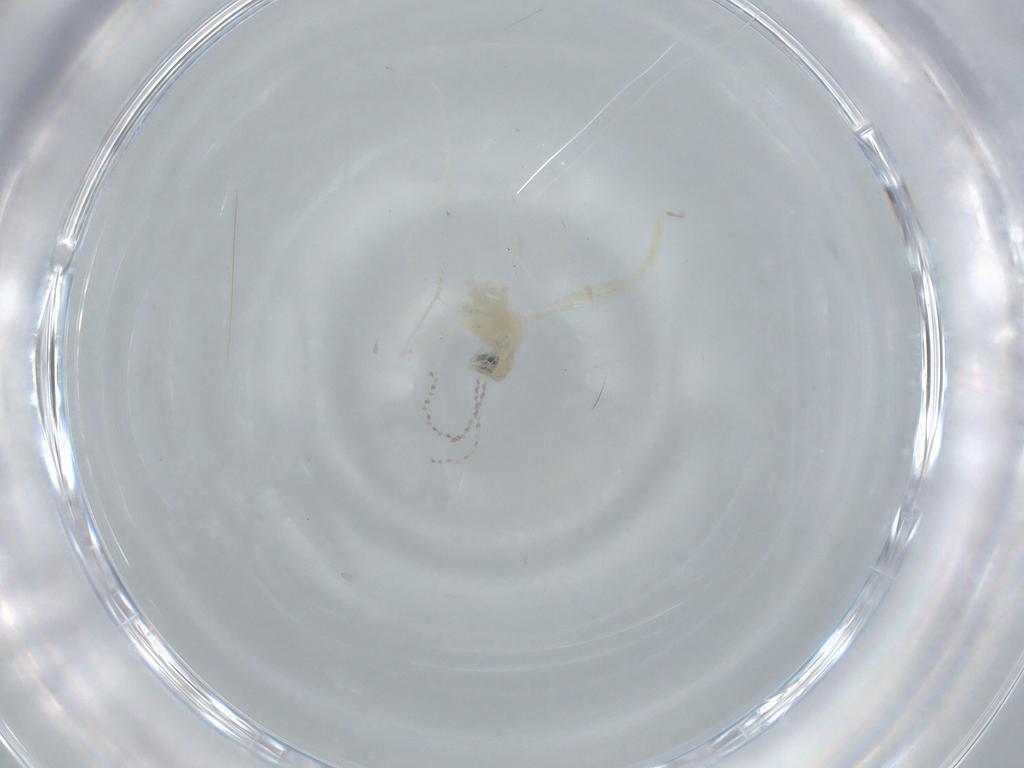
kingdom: Animalia
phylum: Arthropoda
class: Insecta
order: Diptera
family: Cecidomyiidae
